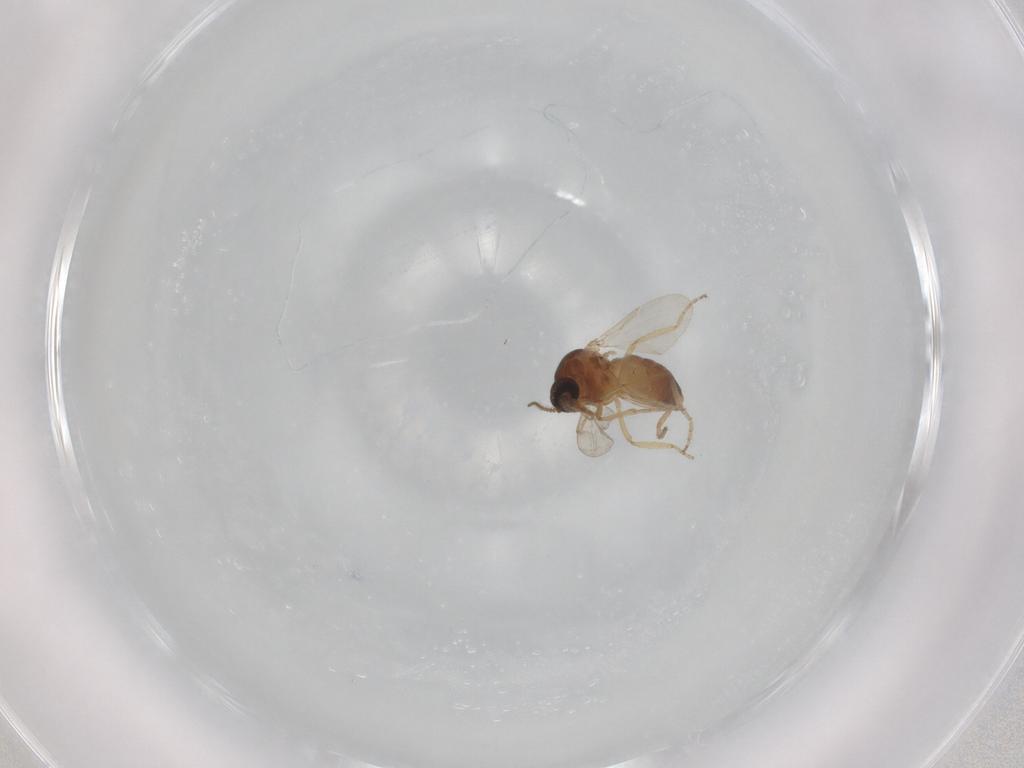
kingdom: Animalia
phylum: Arthropoda
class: Insecta
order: Diptera
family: Ceratopogonidae
